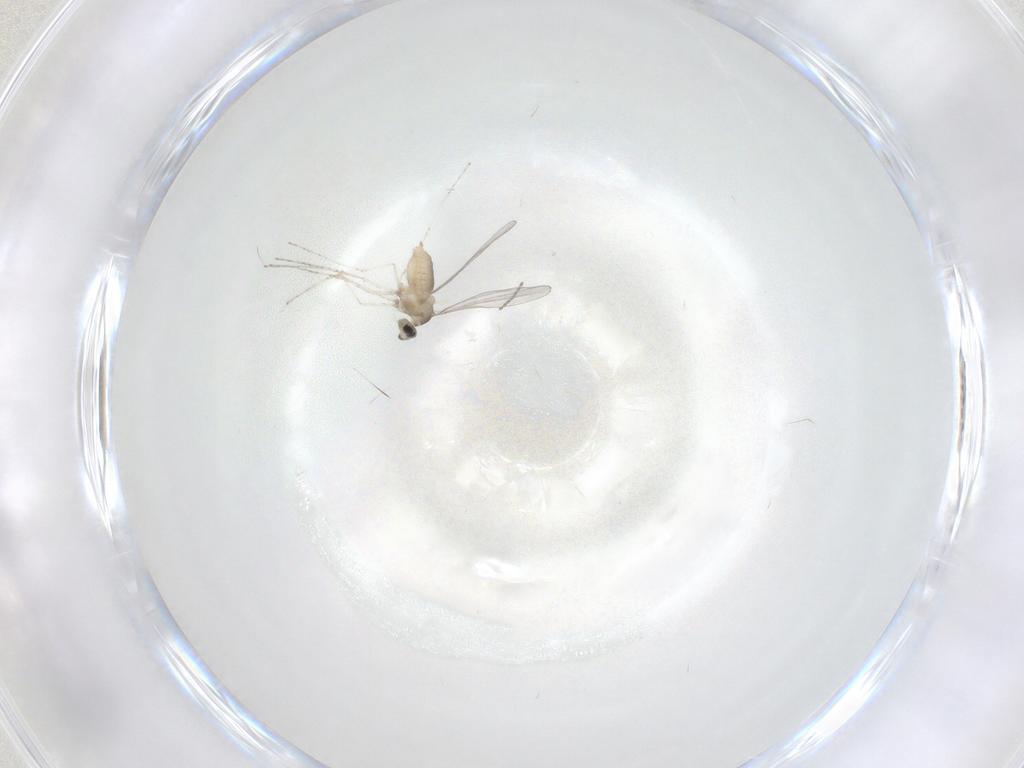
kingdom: Animalia
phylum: Arthropoda
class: Insecta
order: Diptera
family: Cecidomyiidae
